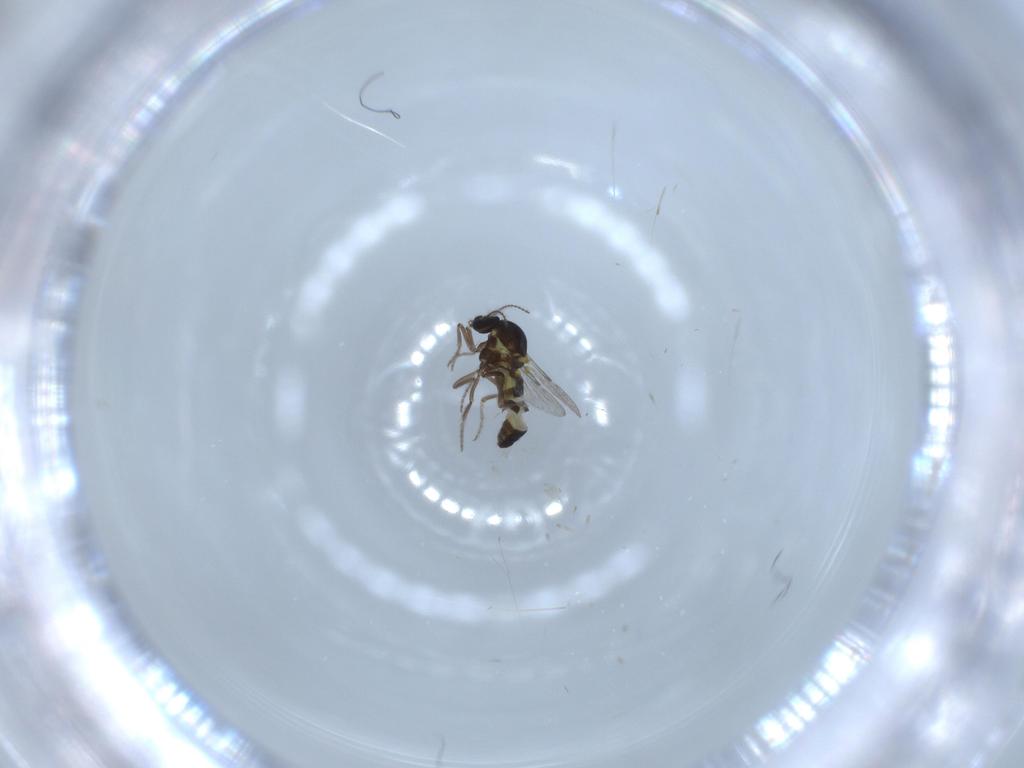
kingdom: Animalia
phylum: Arthropoda
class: Insecta
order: Diptera
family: Ceratopogonidae
